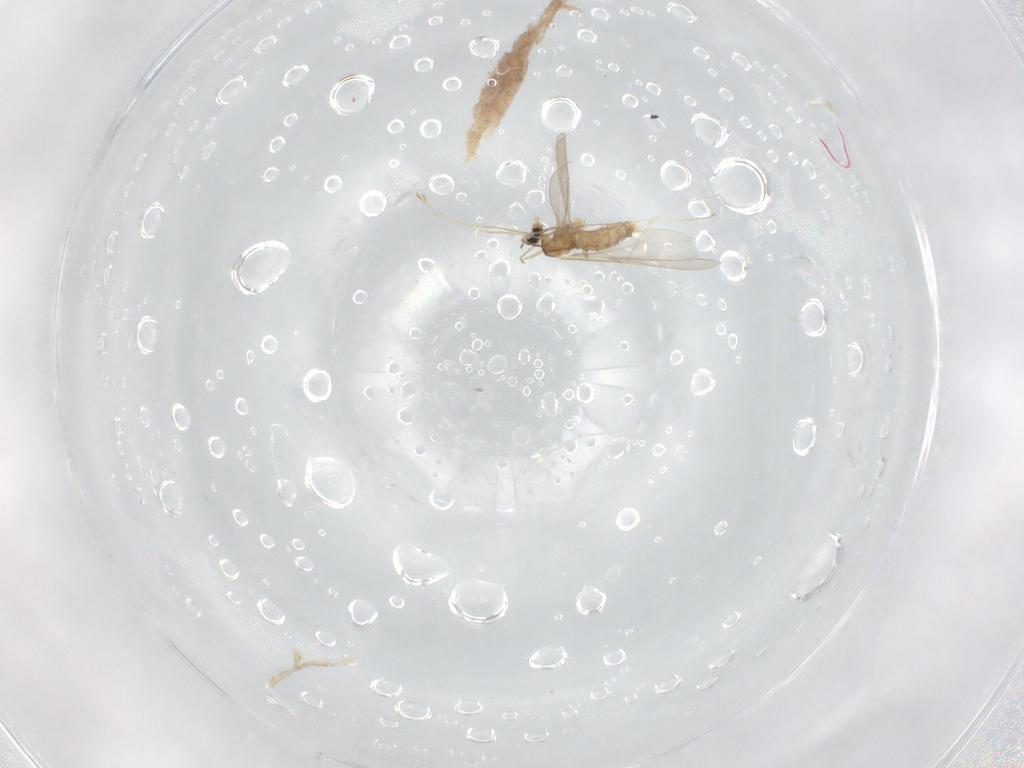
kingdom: Animalia
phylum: Arthropoda
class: Insecta
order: Diptera
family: Cecidomyiidae
